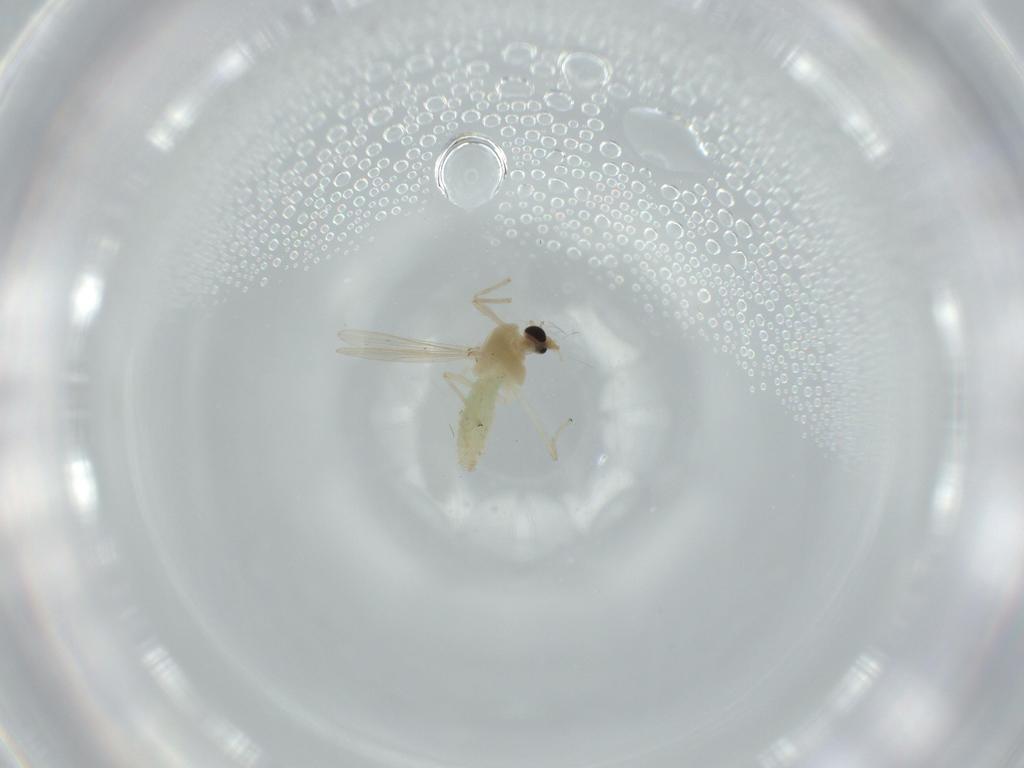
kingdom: Animalia
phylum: Arthropoda
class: Insecta
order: Diptera
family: Chironomidae
